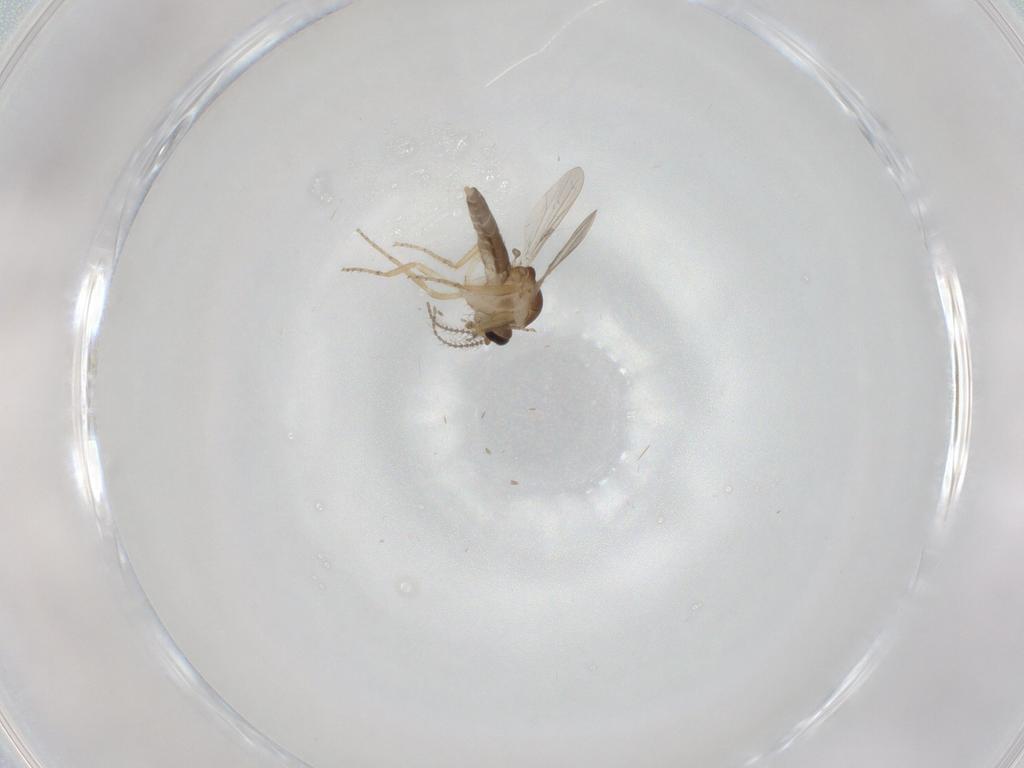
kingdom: Animalia
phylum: Arthropoda
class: Insecta
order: Diptera
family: Ceratopogonidae
